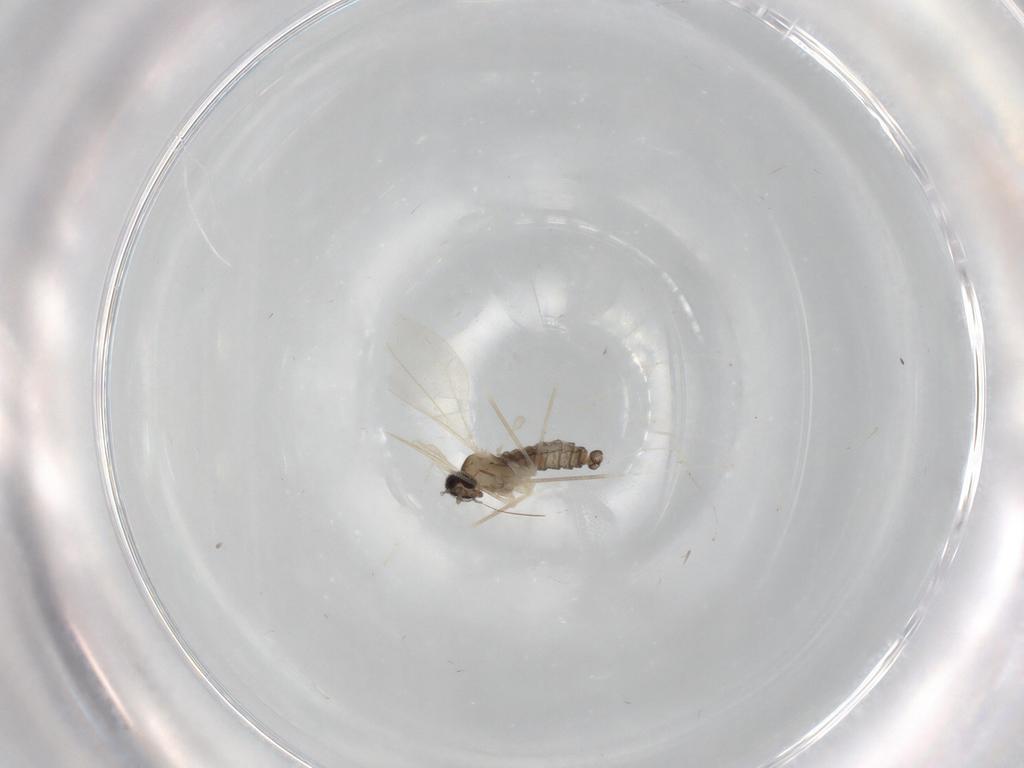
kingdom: Animalia
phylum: Arthropoda
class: Insecta
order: Diptera
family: Cecidomyiidae
